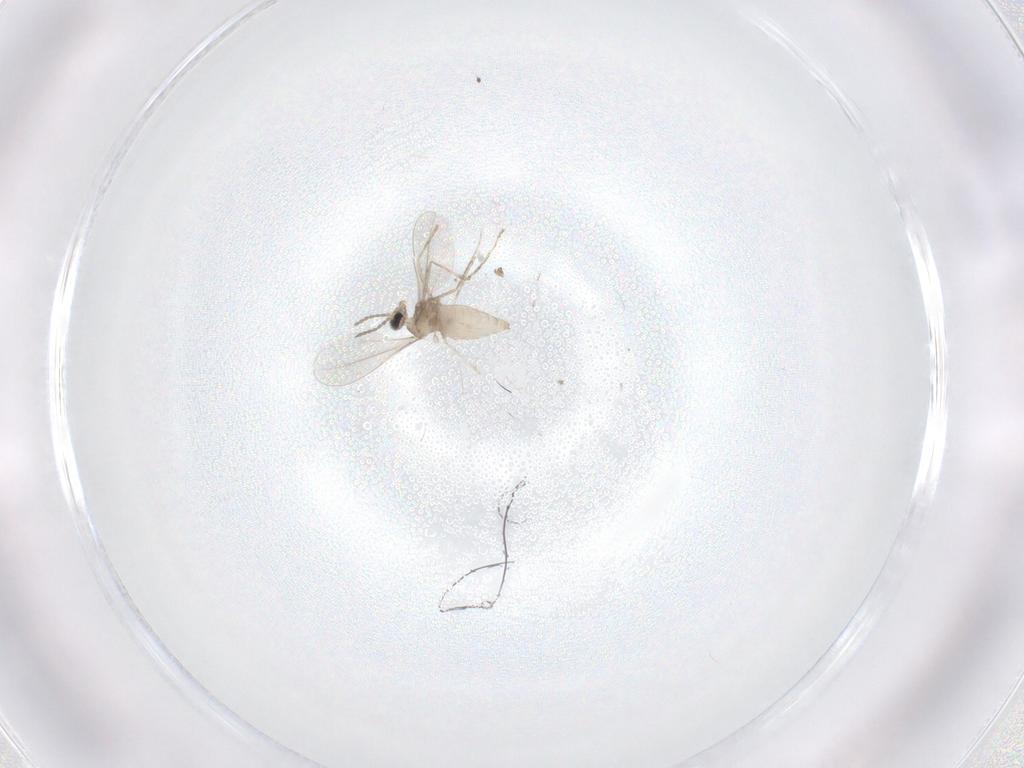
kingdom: Animalia
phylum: Arthropoda
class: Insecta
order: Diptera
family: Cecidomyiidae
